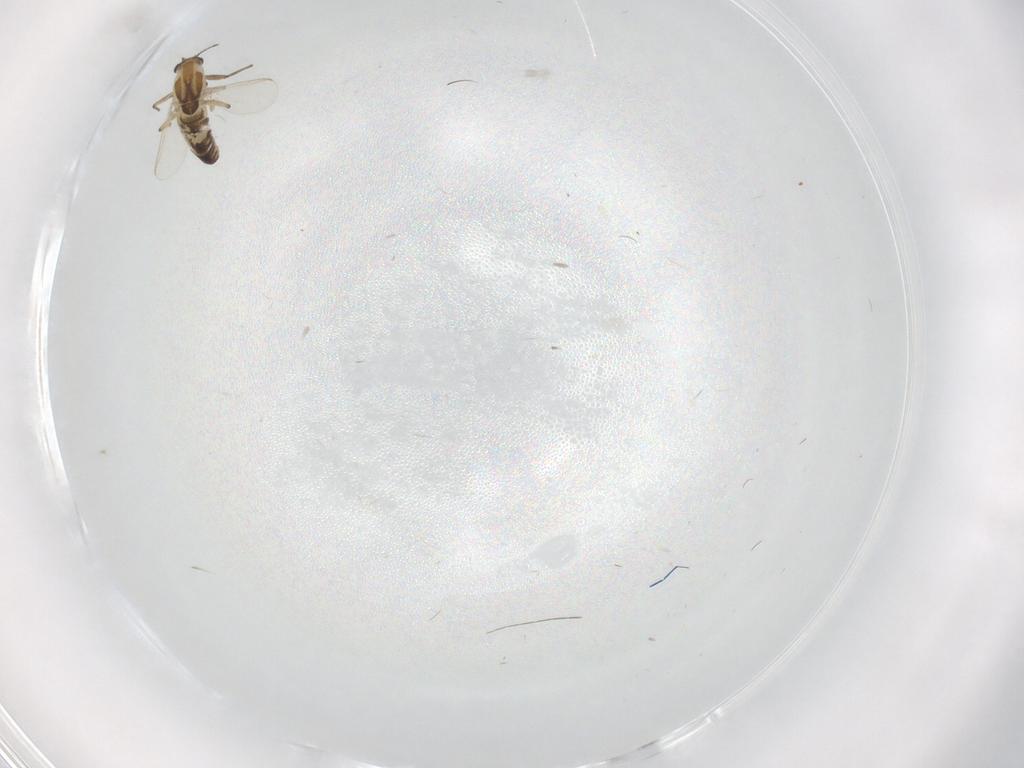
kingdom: Animalia
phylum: Arthropoda
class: Insecta
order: Diptera
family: Chironomidae
